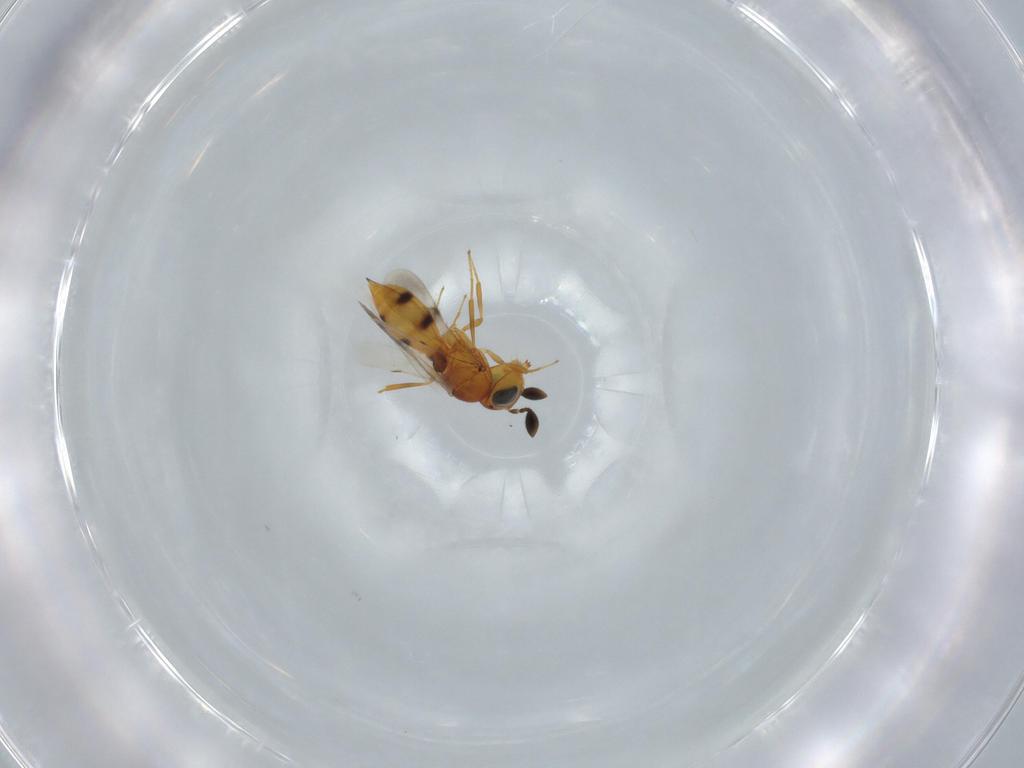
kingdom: Animalia
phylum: Arthropoda
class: Insecta
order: Hymenoptera
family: Scelionidae
